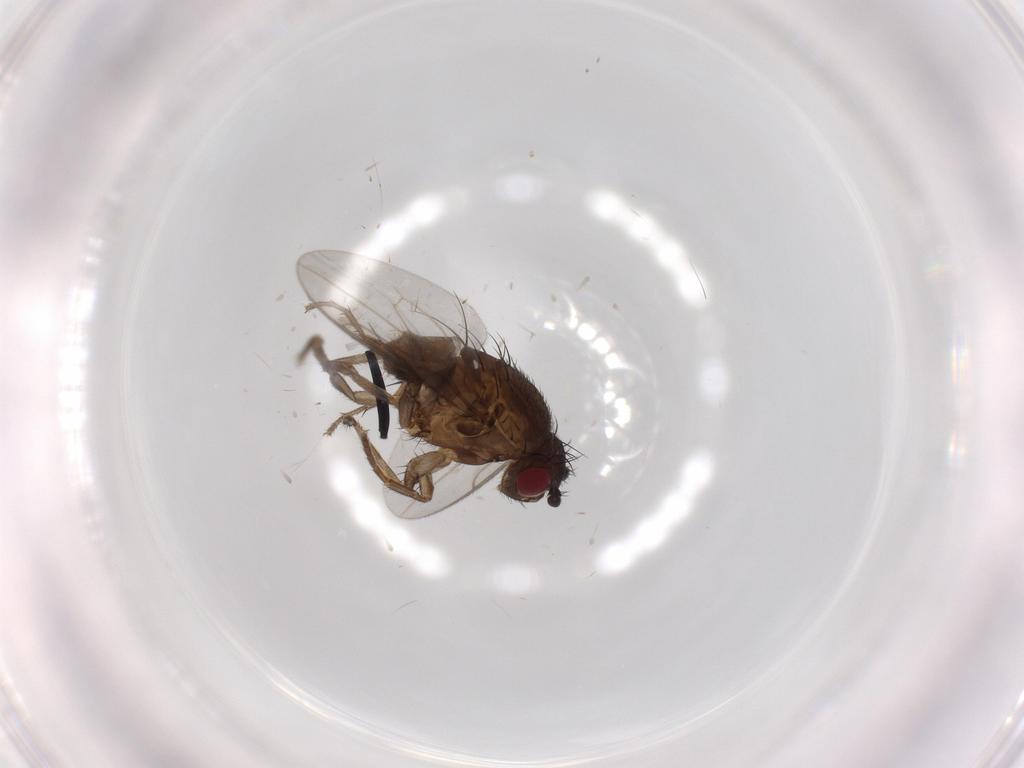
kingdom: Animalia
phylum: Arthropoda
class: Insecta
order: Diptera
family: Sphaeroceridae
